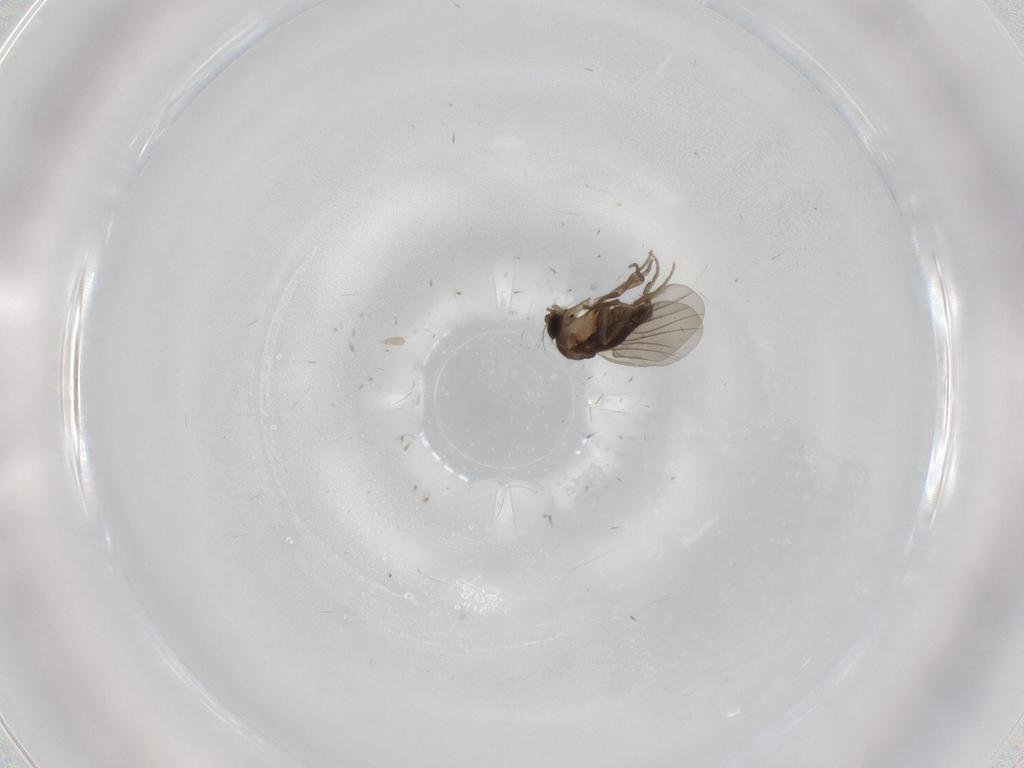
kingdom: Animalia
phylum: Arthropoda
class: Insecta
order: Diptera
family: Phoridae
